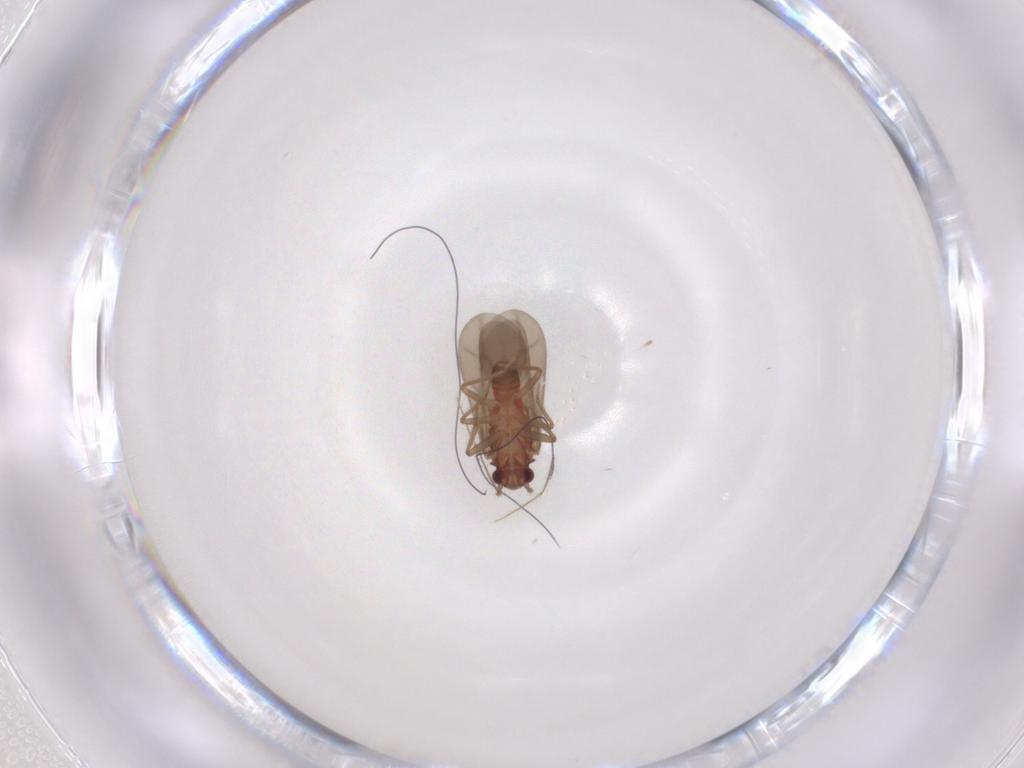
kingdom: Animalia
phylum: Arthropoda
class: Insecta
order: Hemiptera
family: Ceratocombidae
